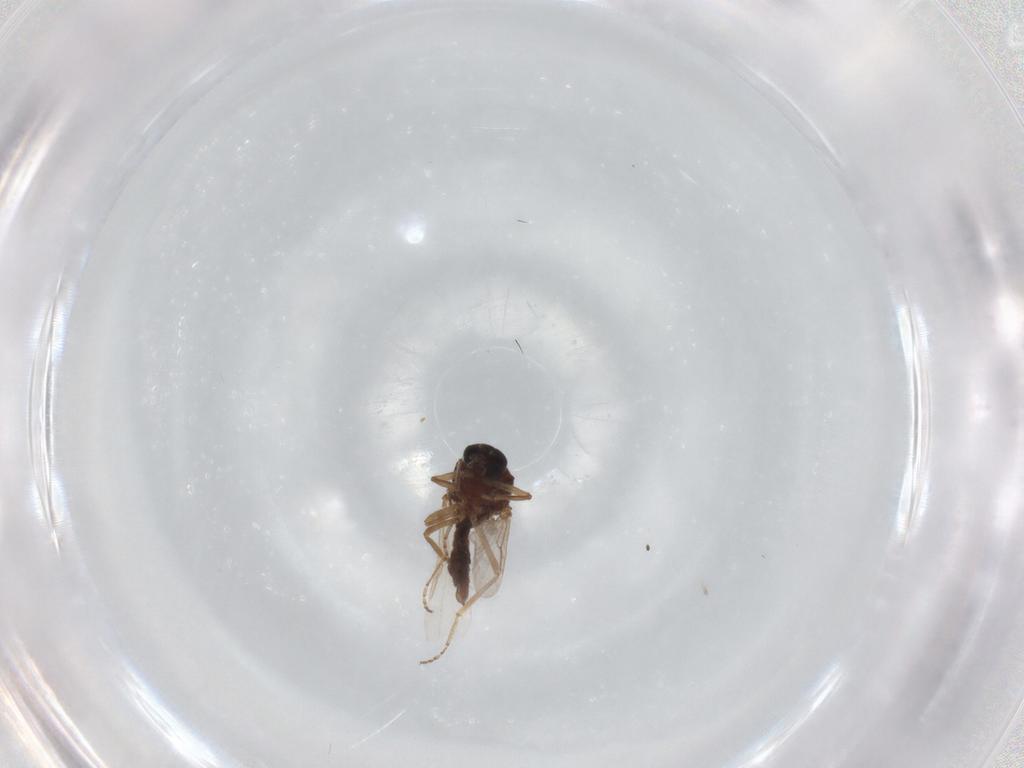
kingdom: Animalia
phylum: Arthropoda
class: Insecta
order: Diptera
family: Ceratopogonidae
